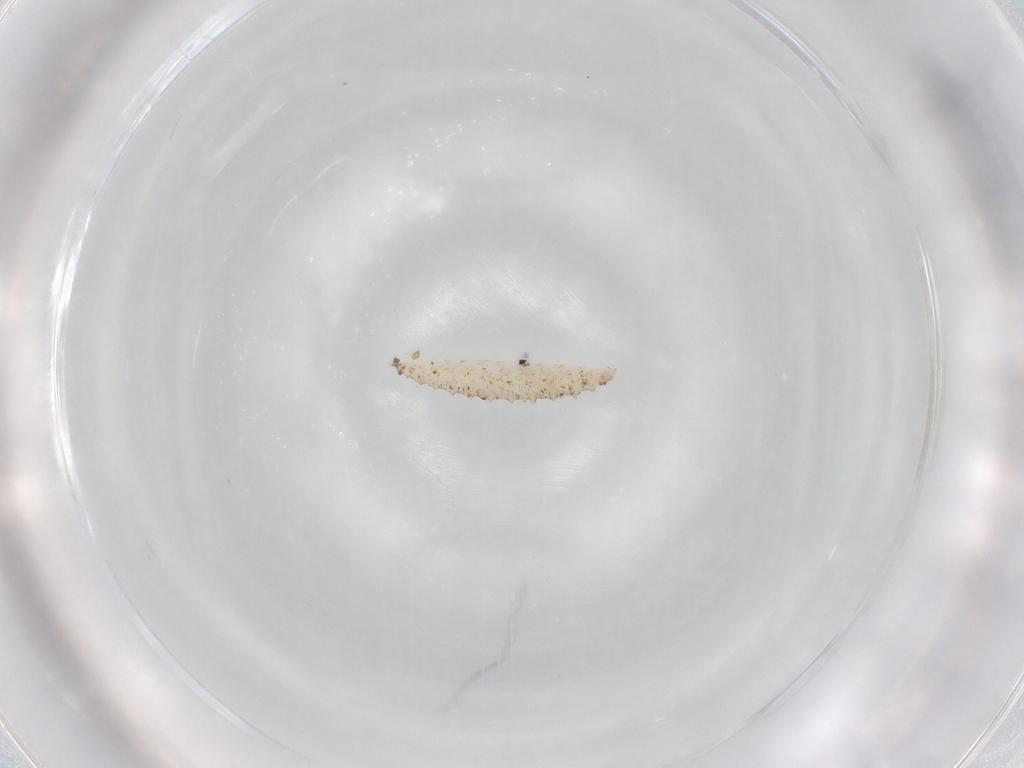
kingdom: Animalia
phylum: Arthropoda
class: Insecta
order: Diptera
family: Cecidomyiidae
